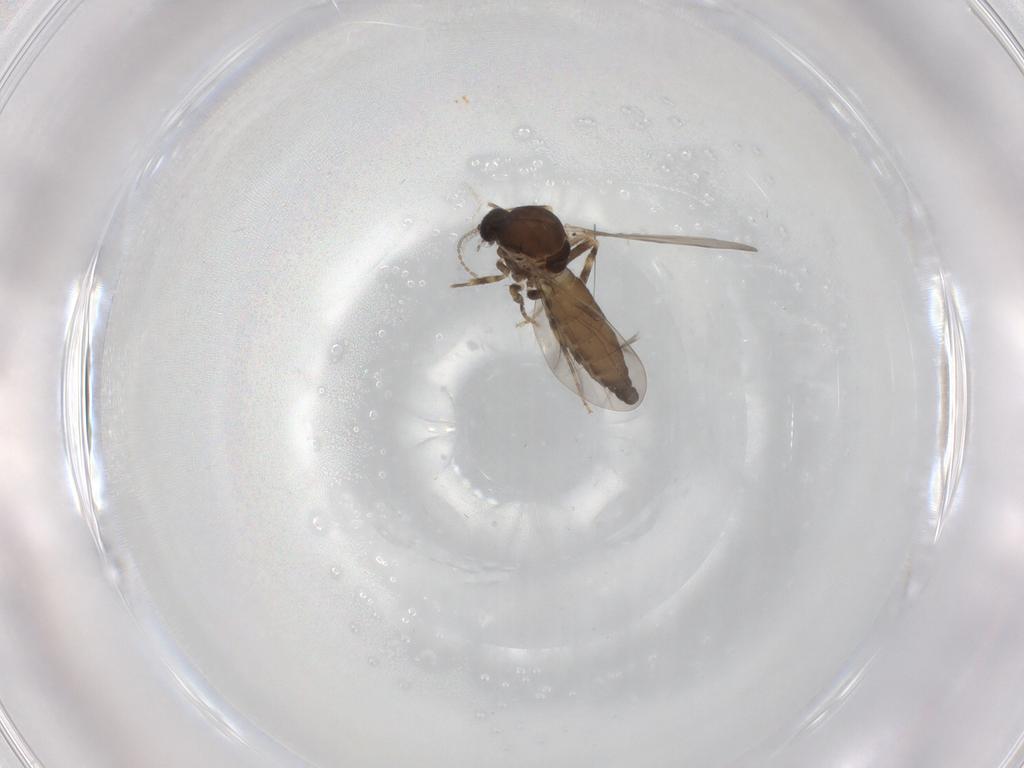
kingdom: Animalia
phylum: Arthropoda
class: Insecta
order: Diptera
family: Ceratopogonidae
